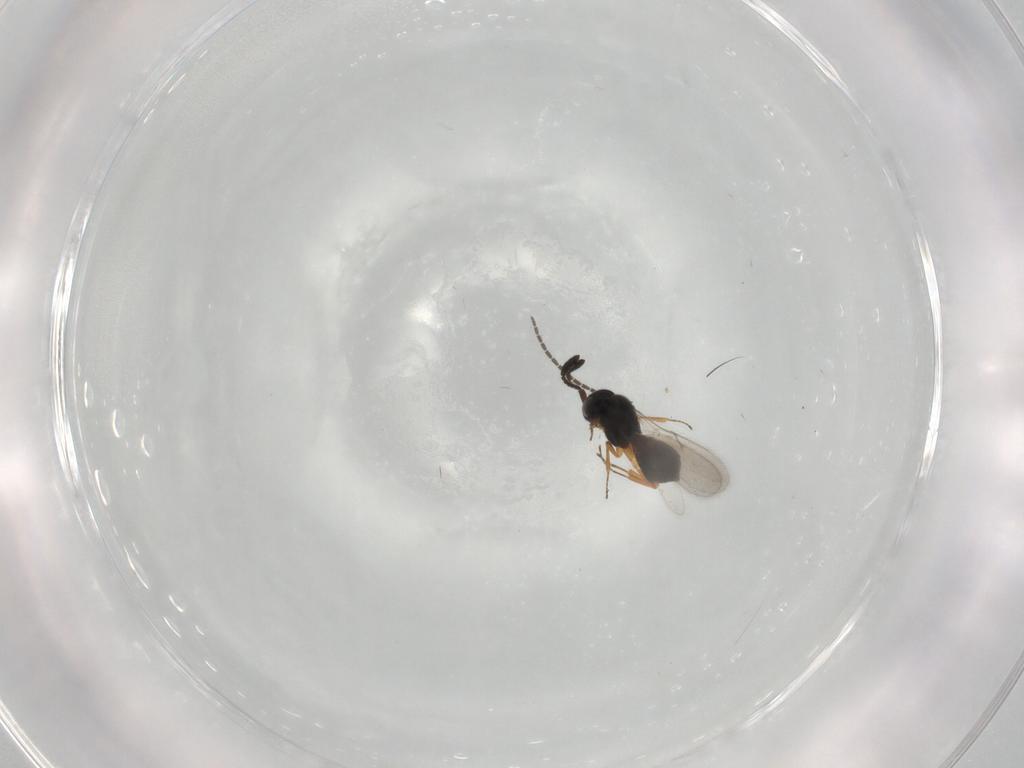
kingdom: Animalia
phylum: Arthropoda
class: Insecta
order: Hymenoptera
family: Scelionidae
